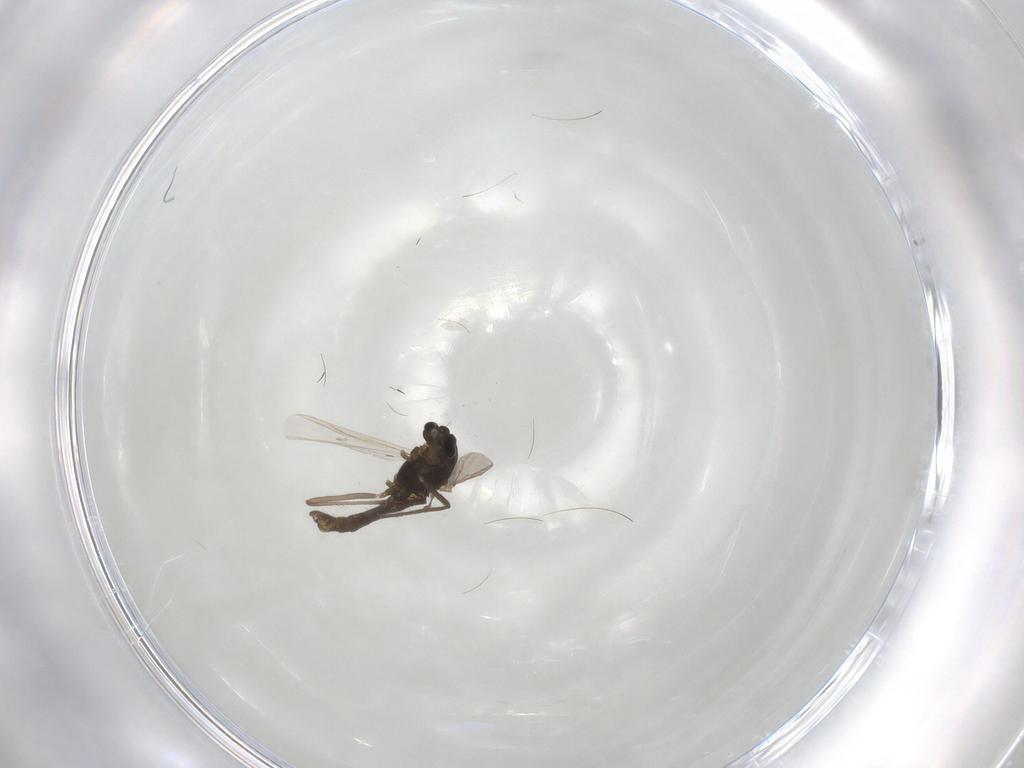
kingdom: Animalia
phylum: Arthropoda
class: Insecta
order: Diptera
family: Chironomidae
